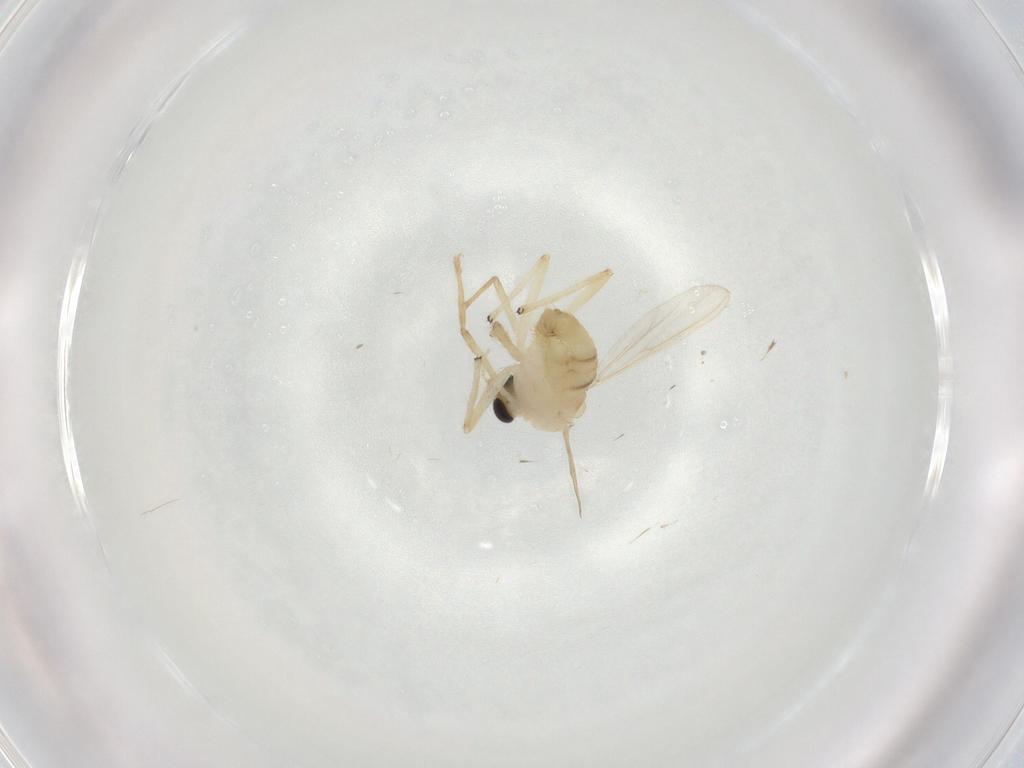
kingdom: Animalia
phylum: Arthropoda
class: Insecta
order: Diptera
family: Chironomidae
